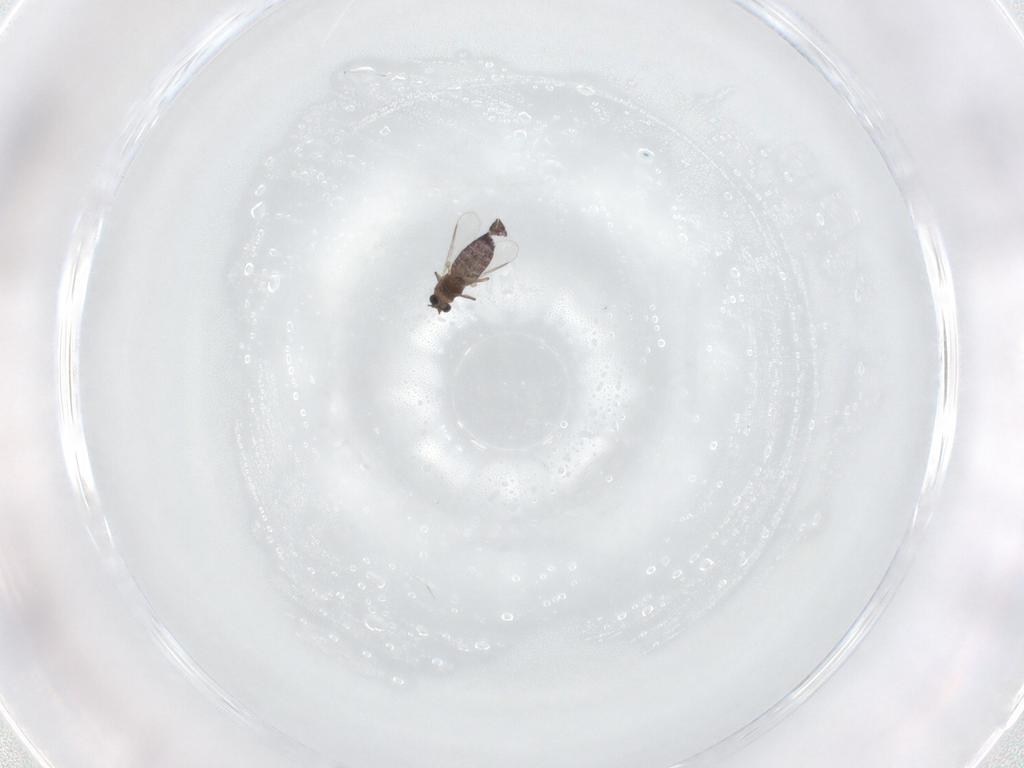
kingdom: Animalia
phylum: Arthropoda
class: Insecta
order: Diptera
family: Chironomidae
